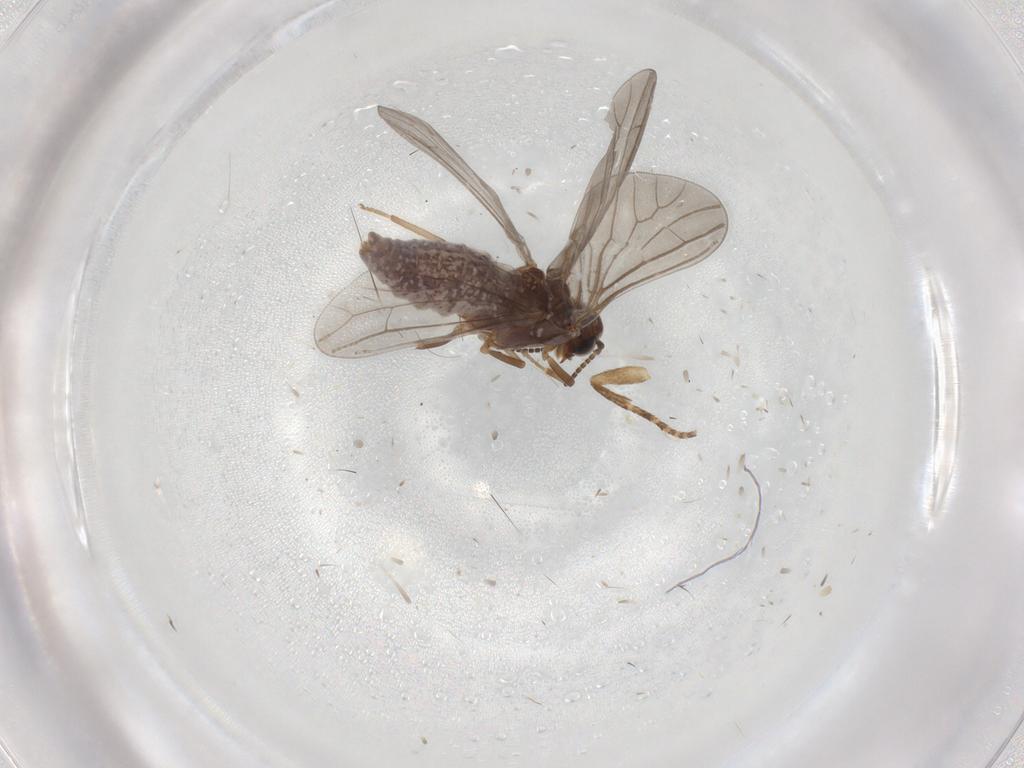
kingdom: Animalia
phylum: Arthropoda
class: Insecta
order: Neuroptera
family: Coniopterygidae
